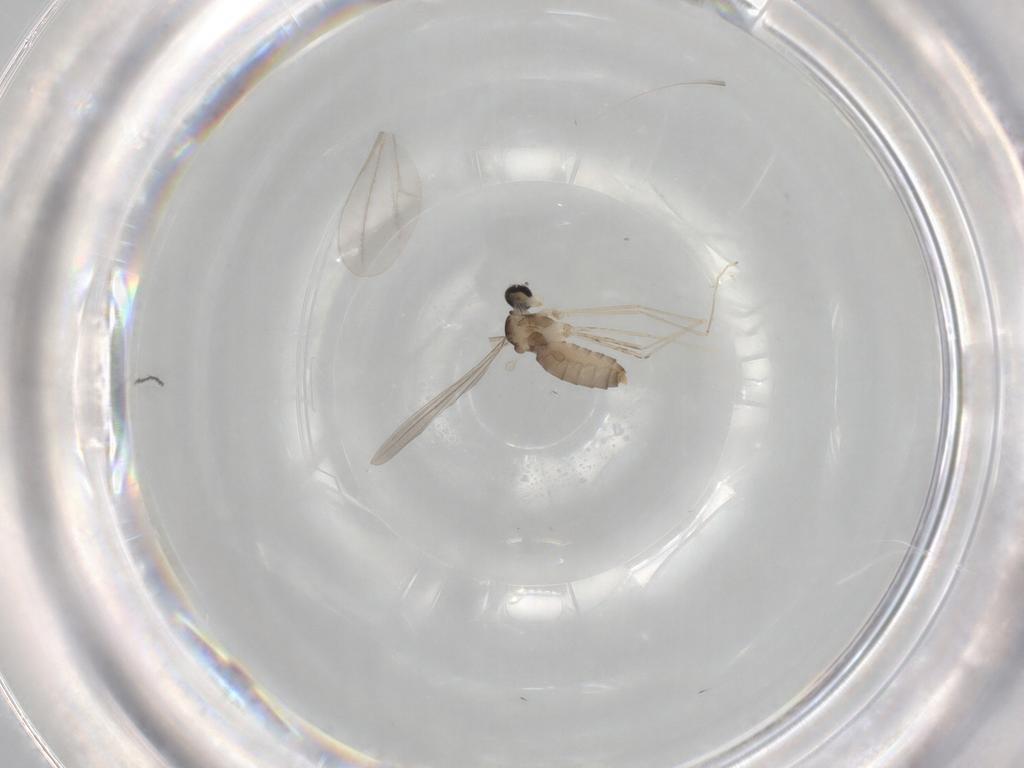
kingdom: Animalia
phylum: Arthropoda
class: Insecta
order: Diptera
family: Cecidomyiidae
